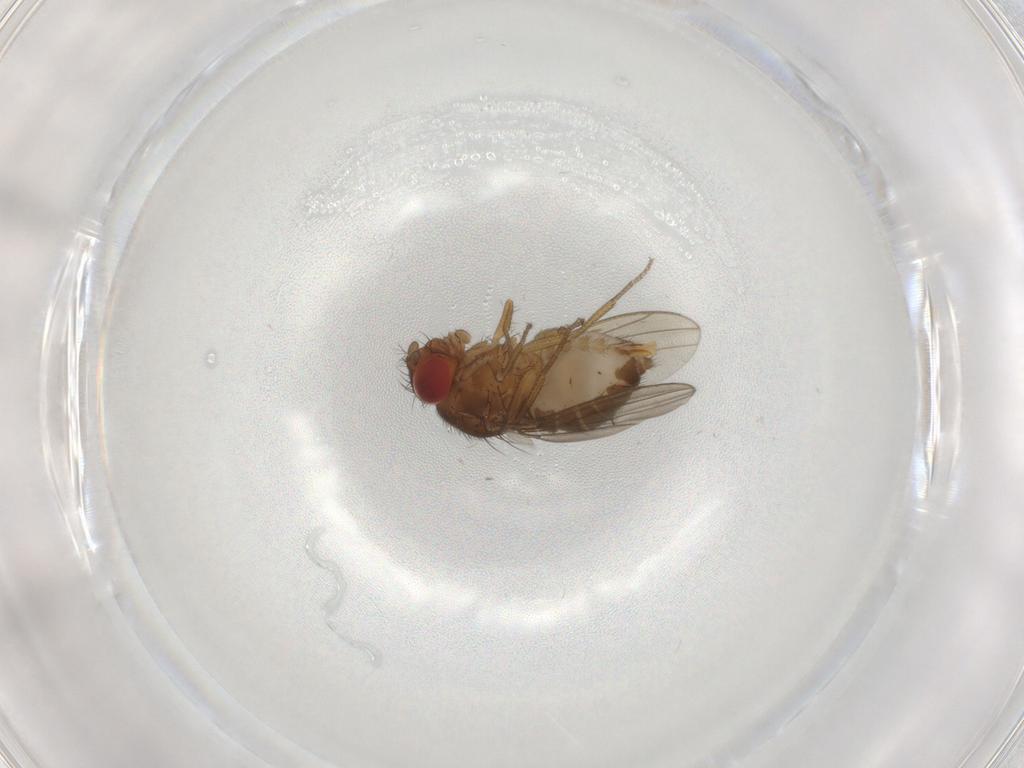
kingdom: Animalia
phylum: Arthropoda
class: Insecta
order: Diptera
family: Drosophilidae
